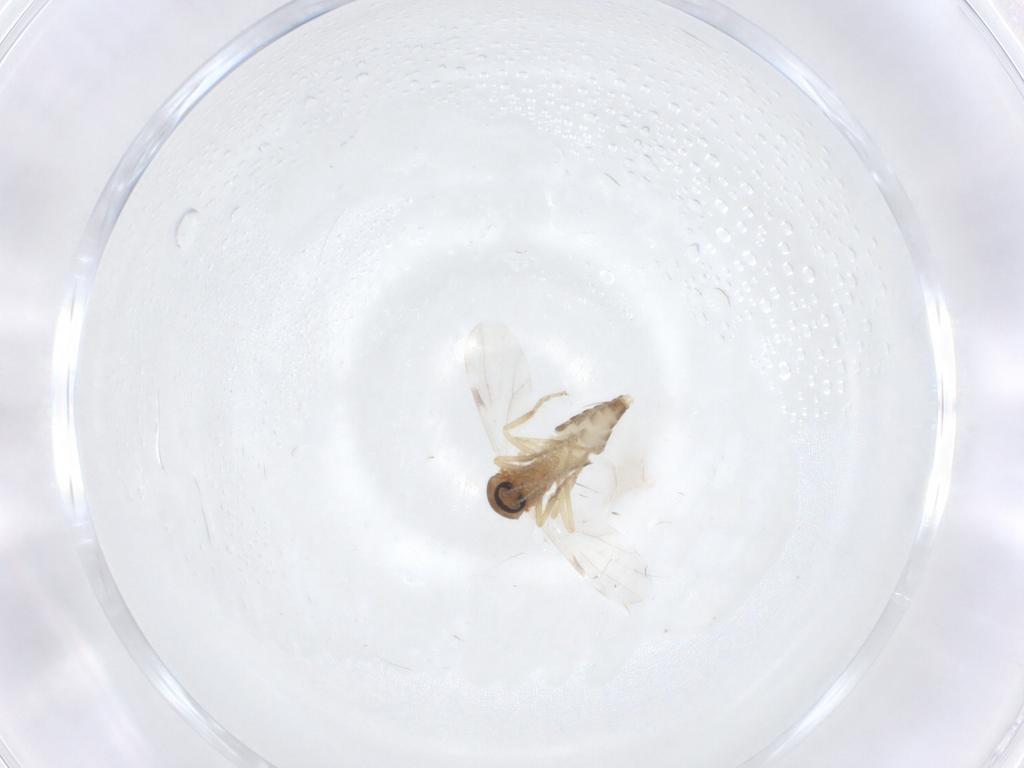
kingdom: Animalia
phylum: Arthropoda
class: Insecta
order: Diptera
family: Ceratopogonidae
